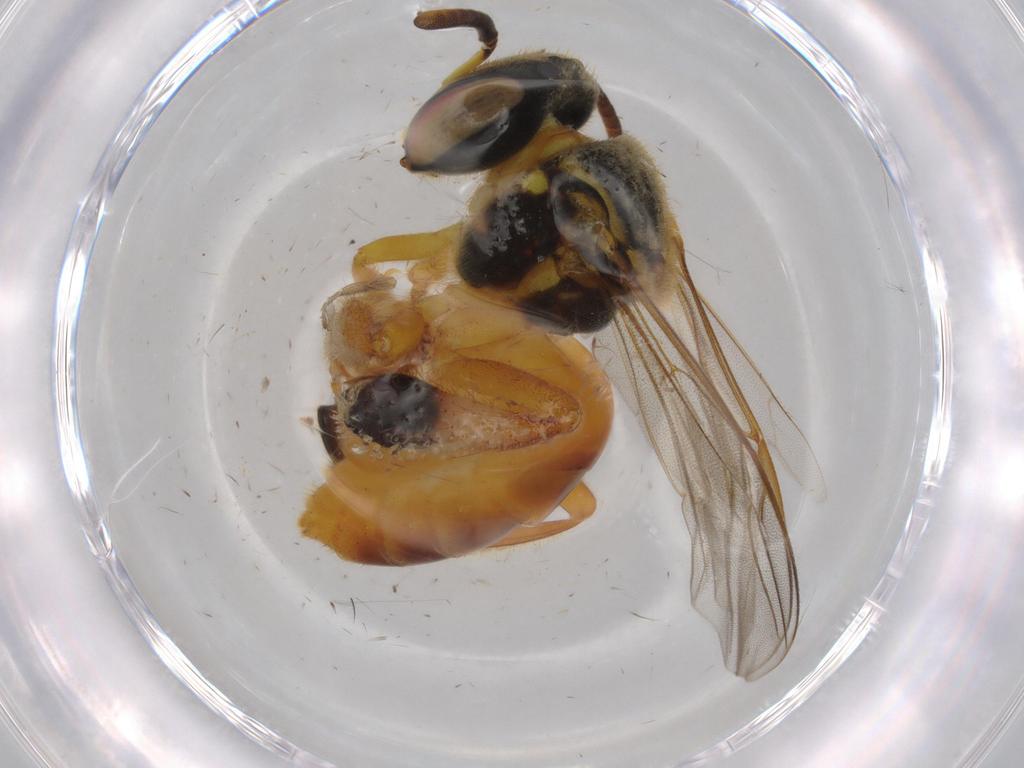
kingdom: Animalia
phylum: Arthropoda
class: Insecta
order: Hymenoptera
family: Apidae
